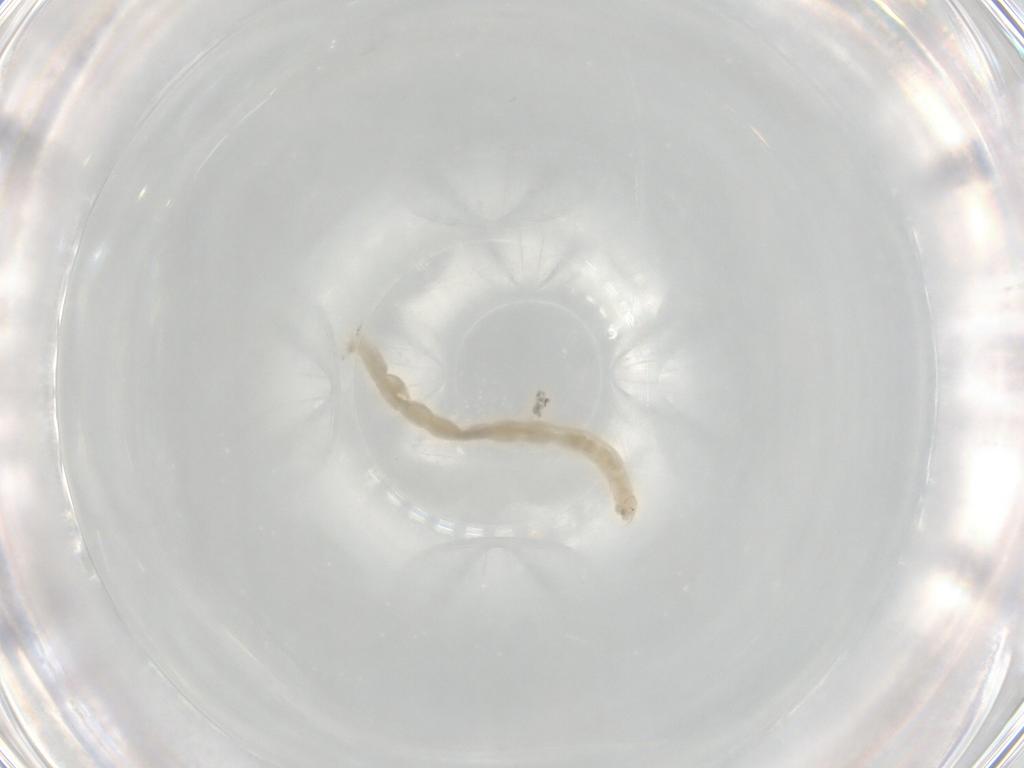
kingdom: Animalia
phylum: Arthropoda
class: Insecta
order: Diptera
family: Chironomidae
